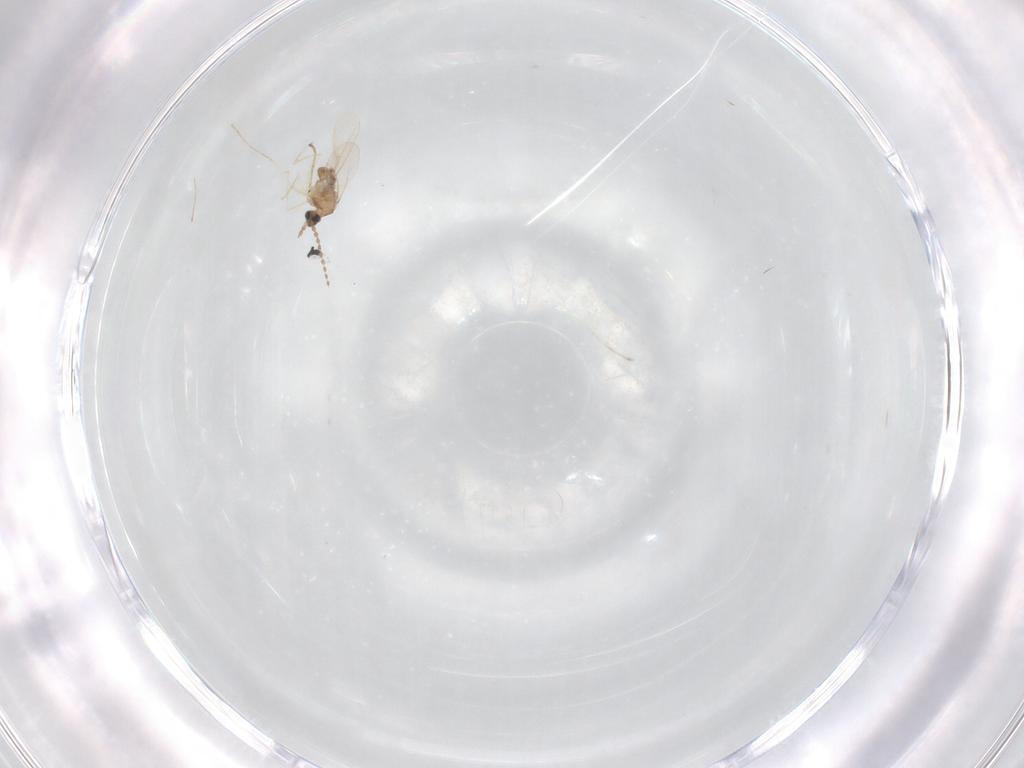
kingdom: Animalia
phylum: Arthropoda
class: Insecta
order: Diptera
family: Cecidomyiidae
